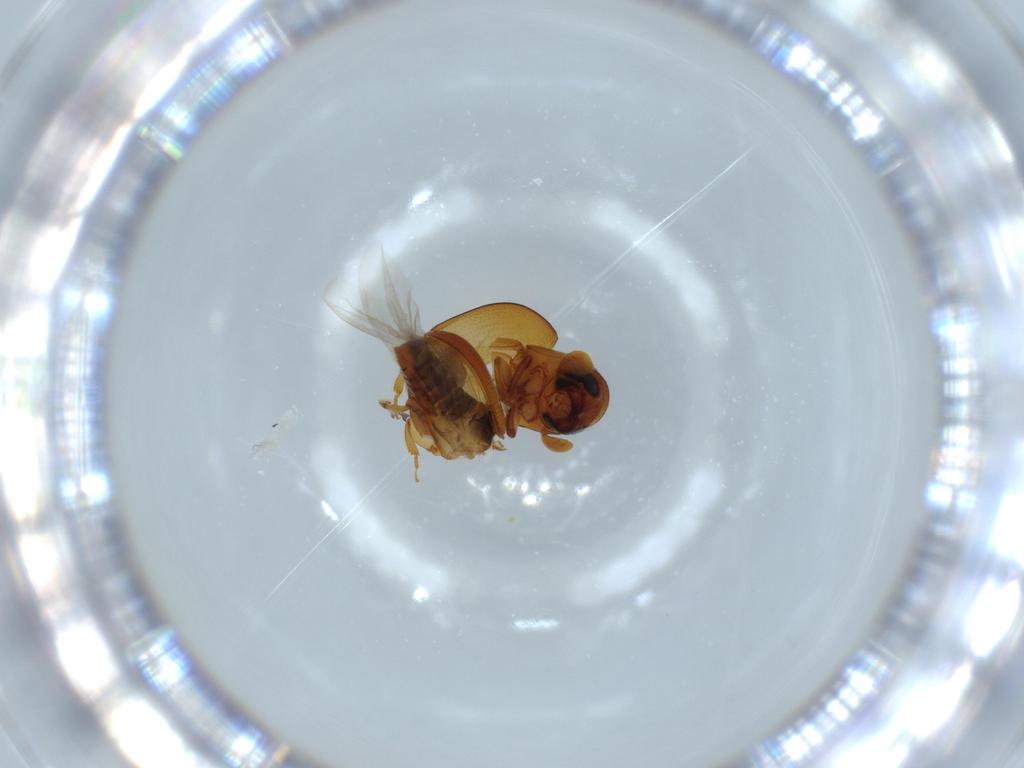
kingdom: Animalia
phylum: Arthropoda
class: Insecta
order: Coleoptera
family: Curculionidae
